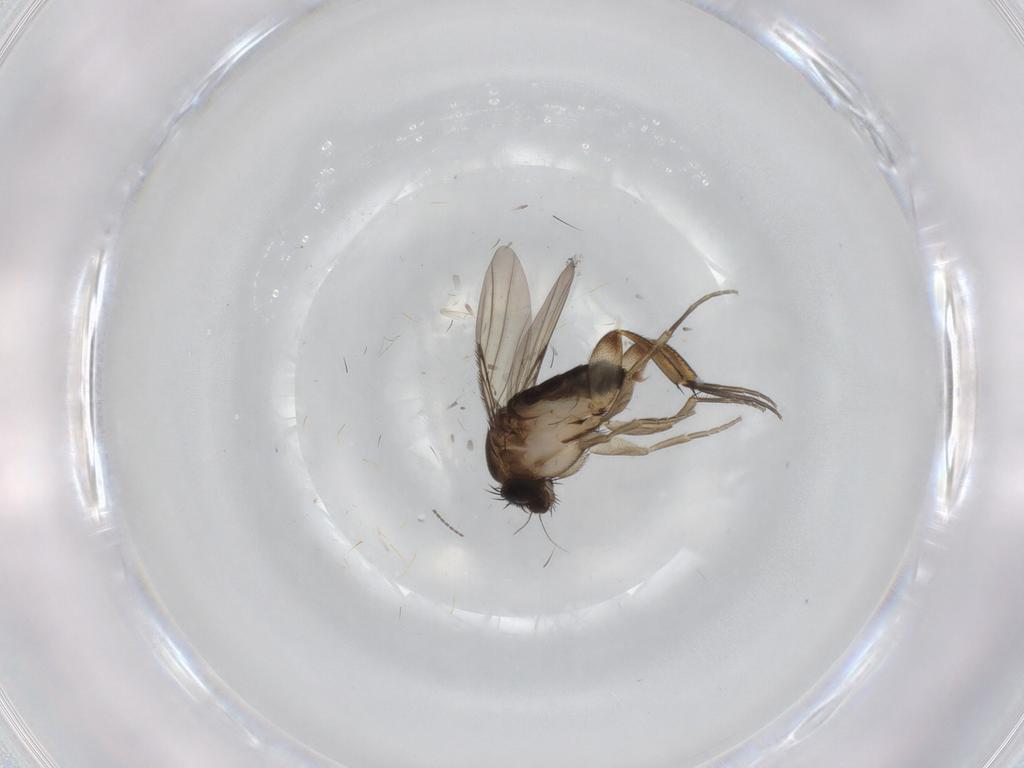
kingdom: Animalia
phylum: Arthropoda
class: Insecta
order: Diptera
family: Phoridae
